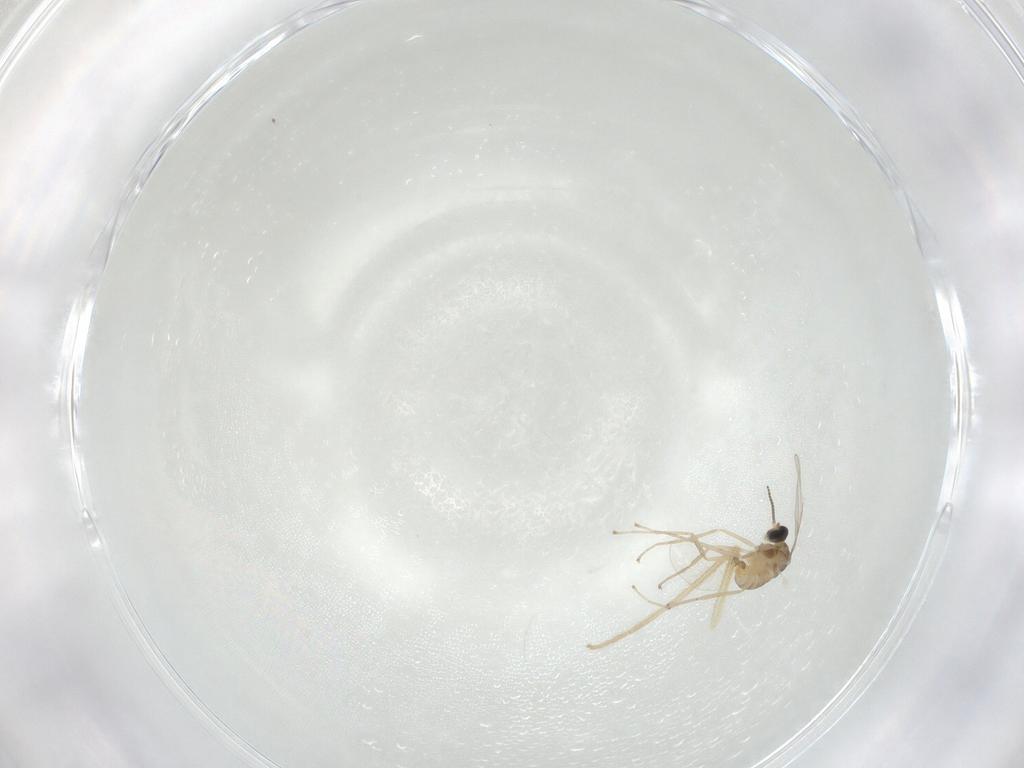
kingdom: Animalia
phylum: Arthropoda
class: Insecta
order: Diptera
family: Cecidomyiidae
